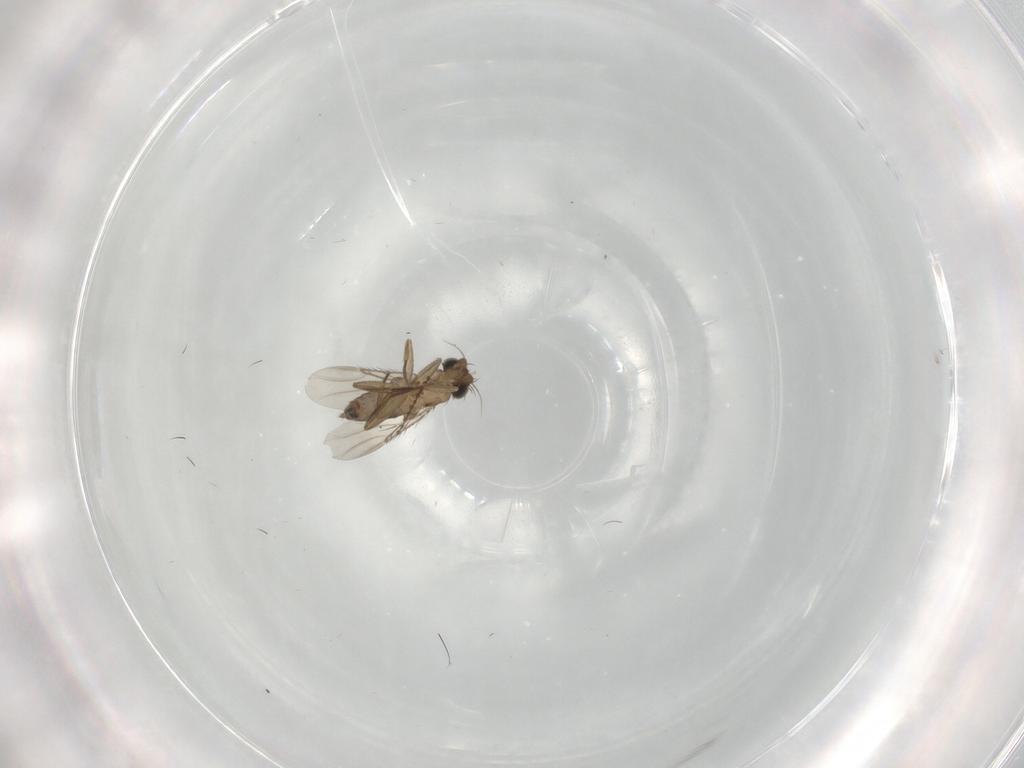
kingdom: Animalia
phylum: Arthropoda
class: Insecta
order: Diptera
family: Phoridae
